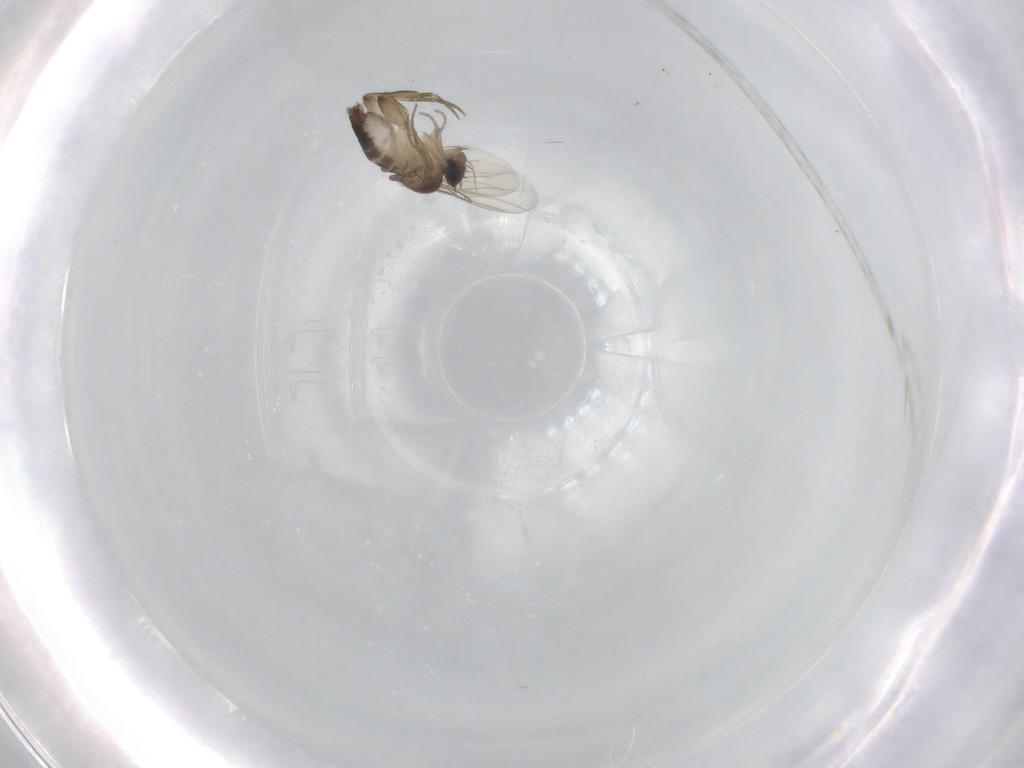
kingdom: Animalia
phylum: Arthropoda
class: Insecta
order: Diptera
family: Phoridae
